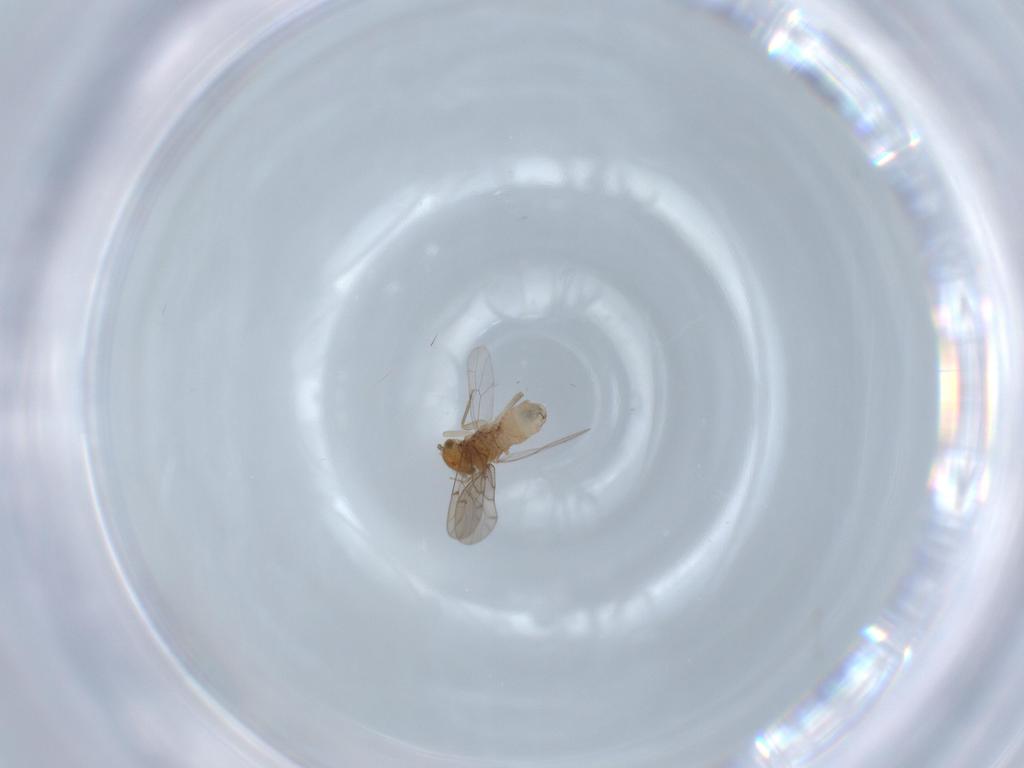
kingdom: Animalia
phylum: Arthropoda
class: Insecta
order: Psocodea
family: Ectopsocidae
